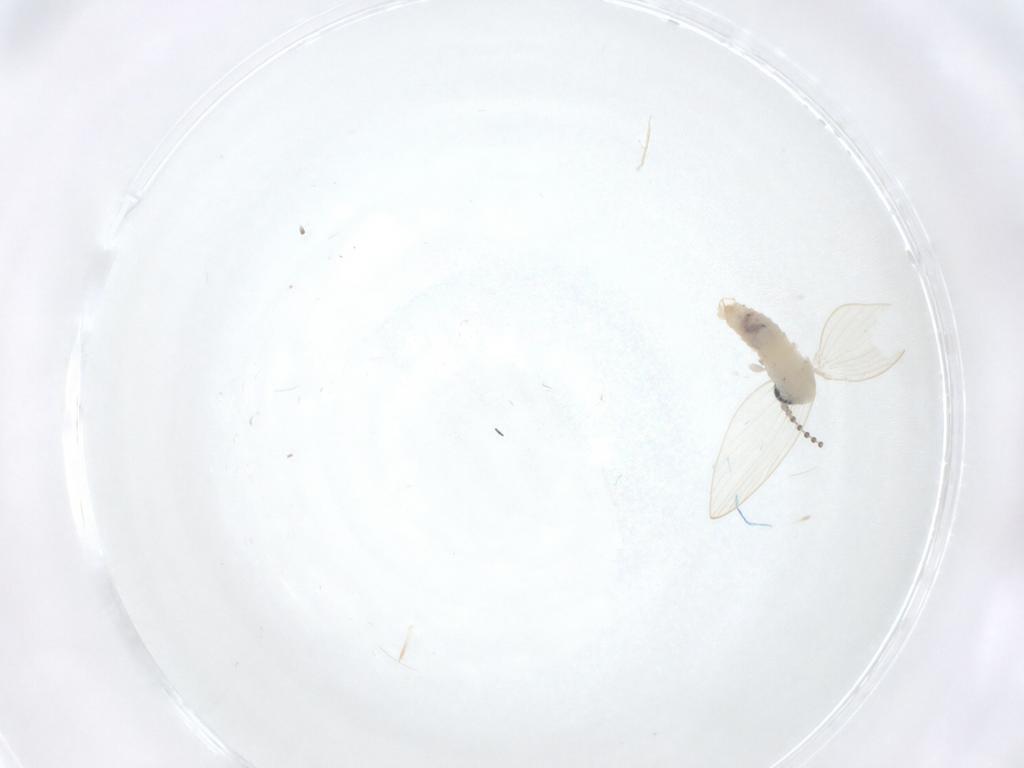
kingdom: Animalia
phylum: Arthropoda
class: Insecta
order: Diptera
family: Psychodidae
